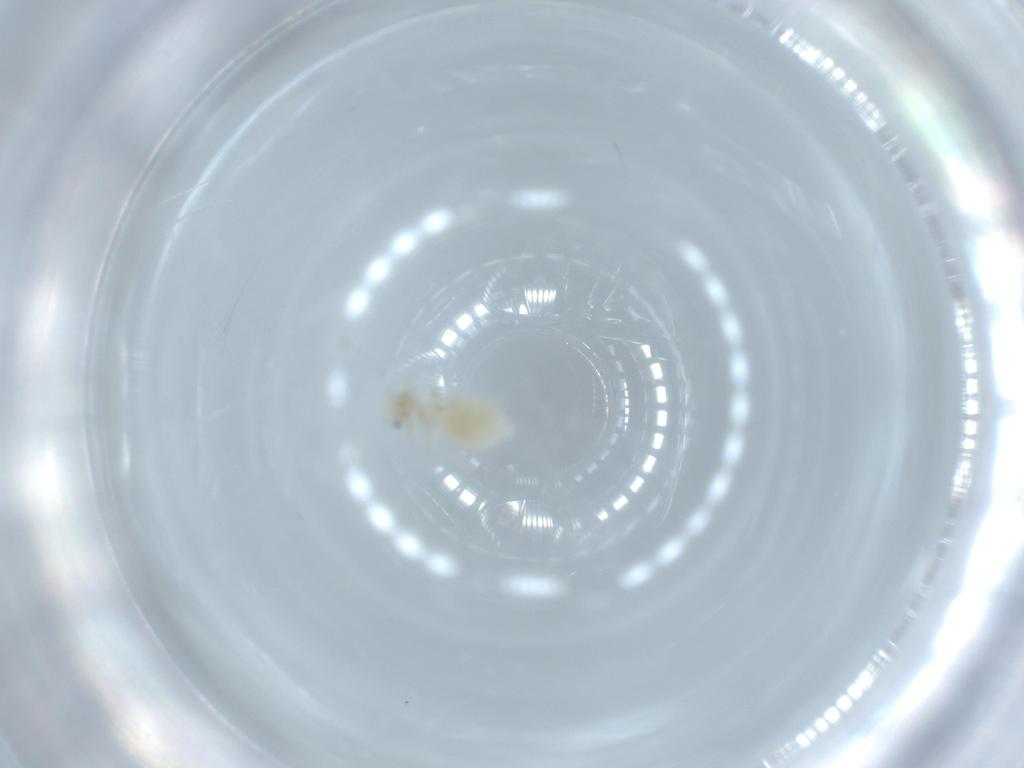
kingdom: Animalia
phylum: Arthropoda
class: Insecta
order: Psocodea
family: Caeciliusidae
